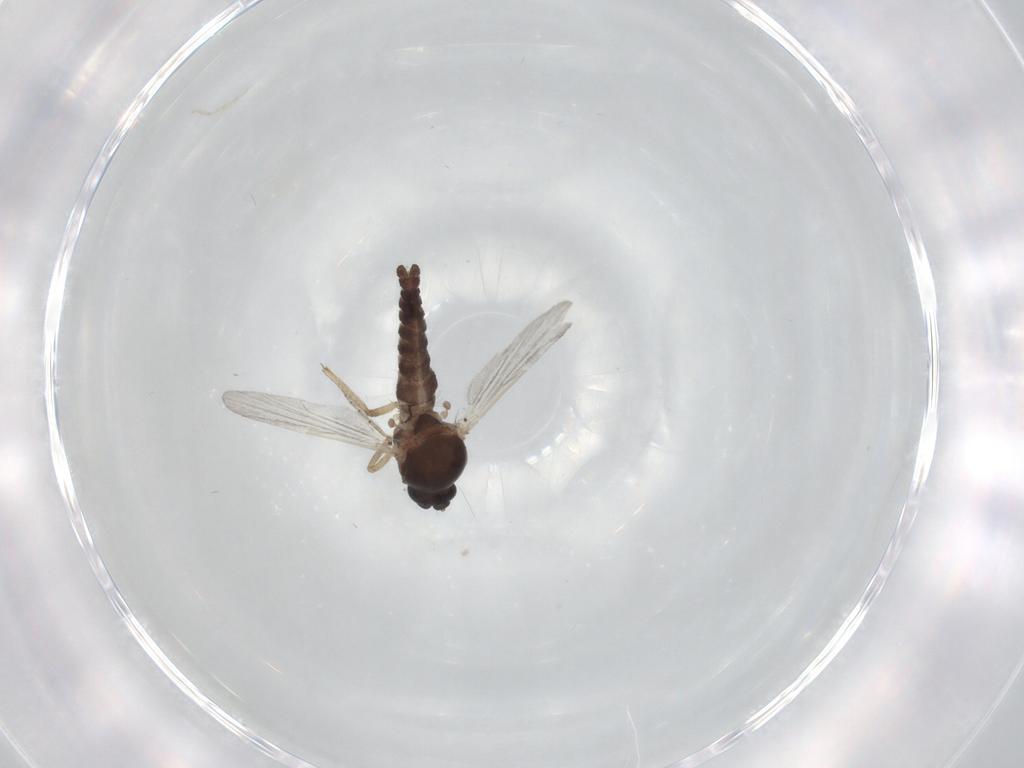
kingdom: Animalia
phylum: Arthropoda
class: Insecta
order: Diptera
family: Ceratopogonidae
